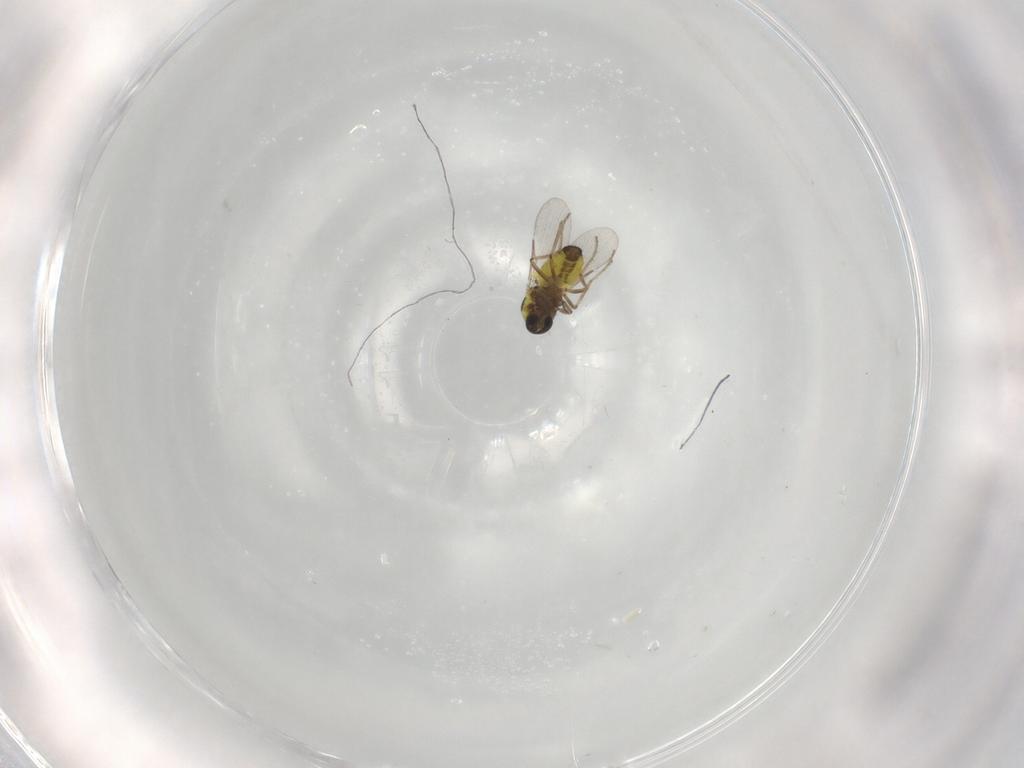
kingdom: Animalia
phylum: Arthropoda
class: Insecta
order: Diptera
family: Ceratopogonidae
